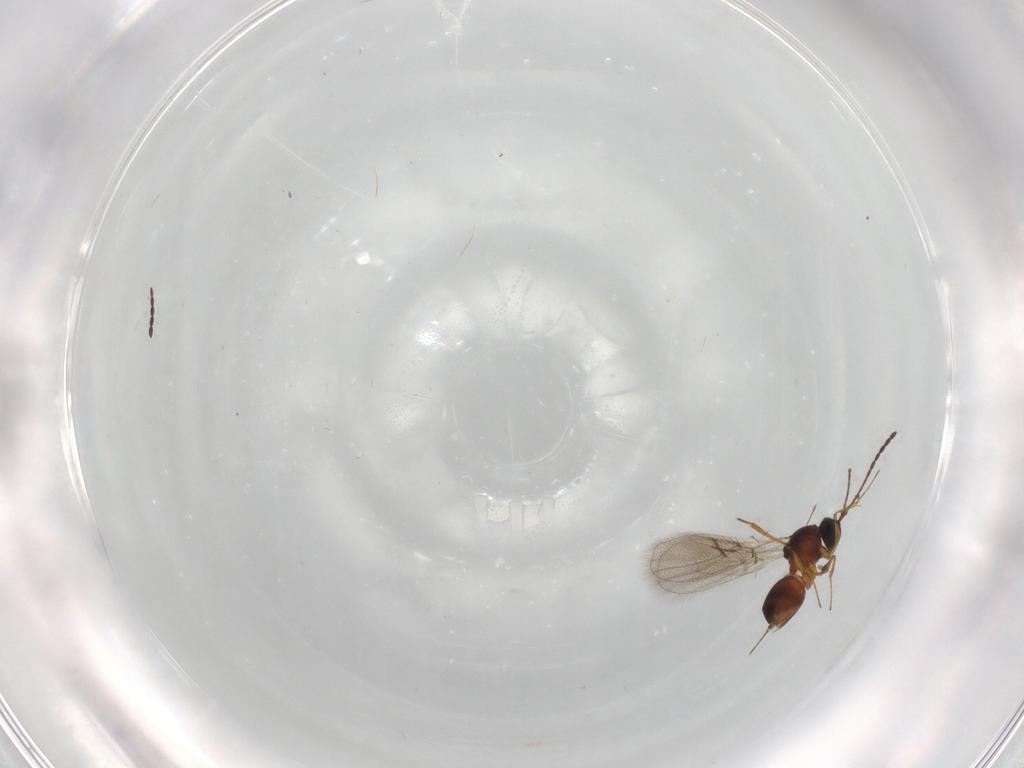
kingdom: Animalia
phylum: Arthropoda
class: Insecta
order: Hymenoptera
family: Figitidae
